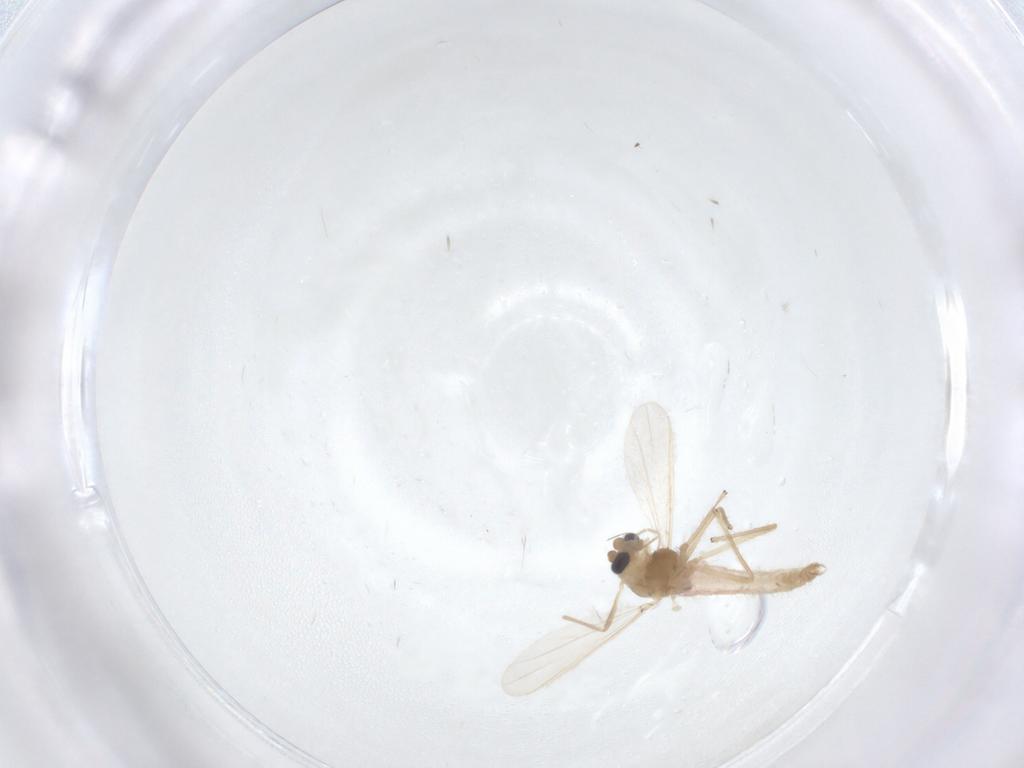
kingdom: Animalia
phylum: Arthropoda
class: Insecta
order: Diptera
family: Chironomidae
